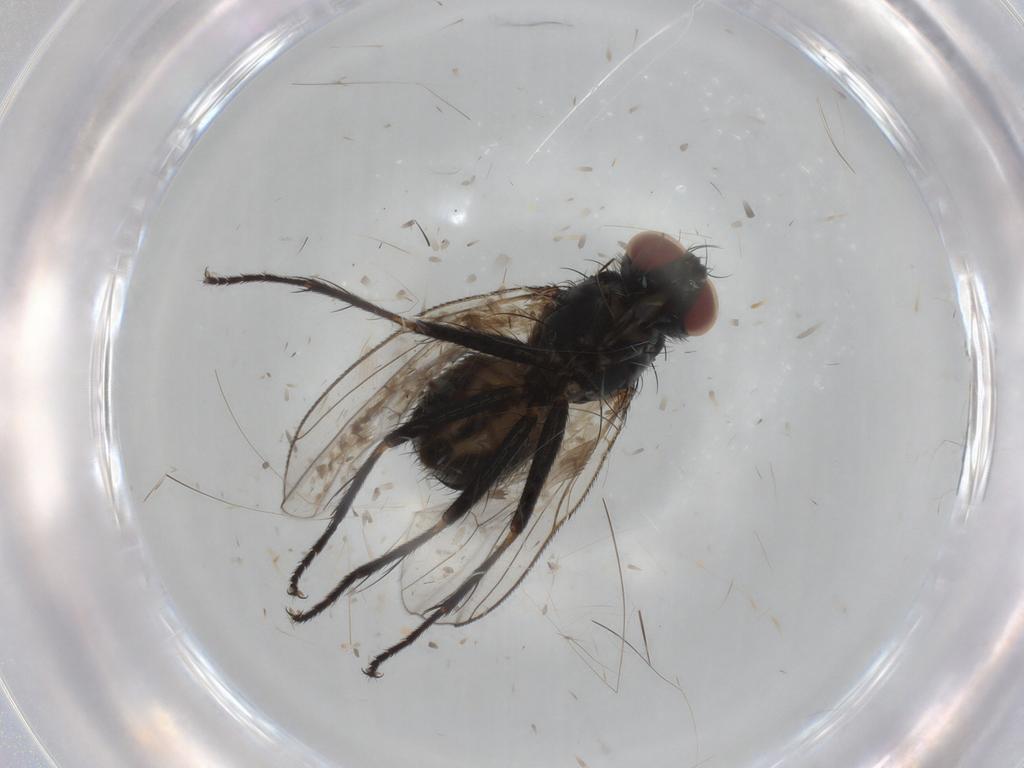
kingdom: Animalia
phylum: Arthropoda
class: Insecta
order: Diptera
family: Muscidae
